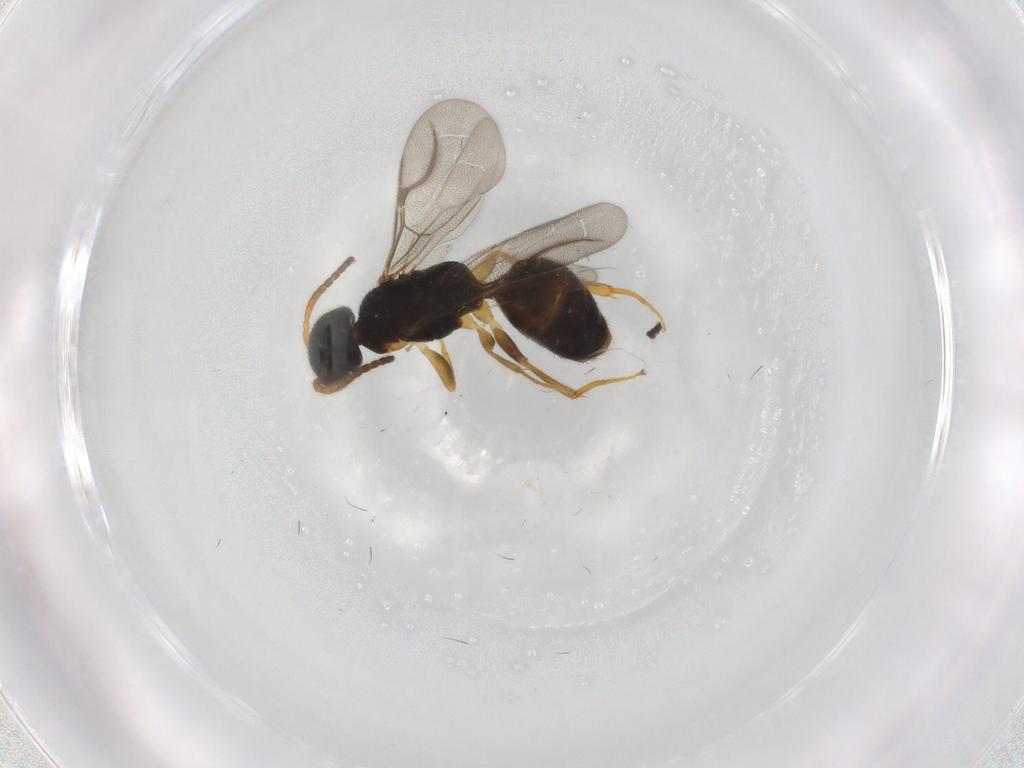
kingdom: Animalia
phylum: Arthropoda
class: Insecta
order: Hymenoptera
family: Bethylidae
